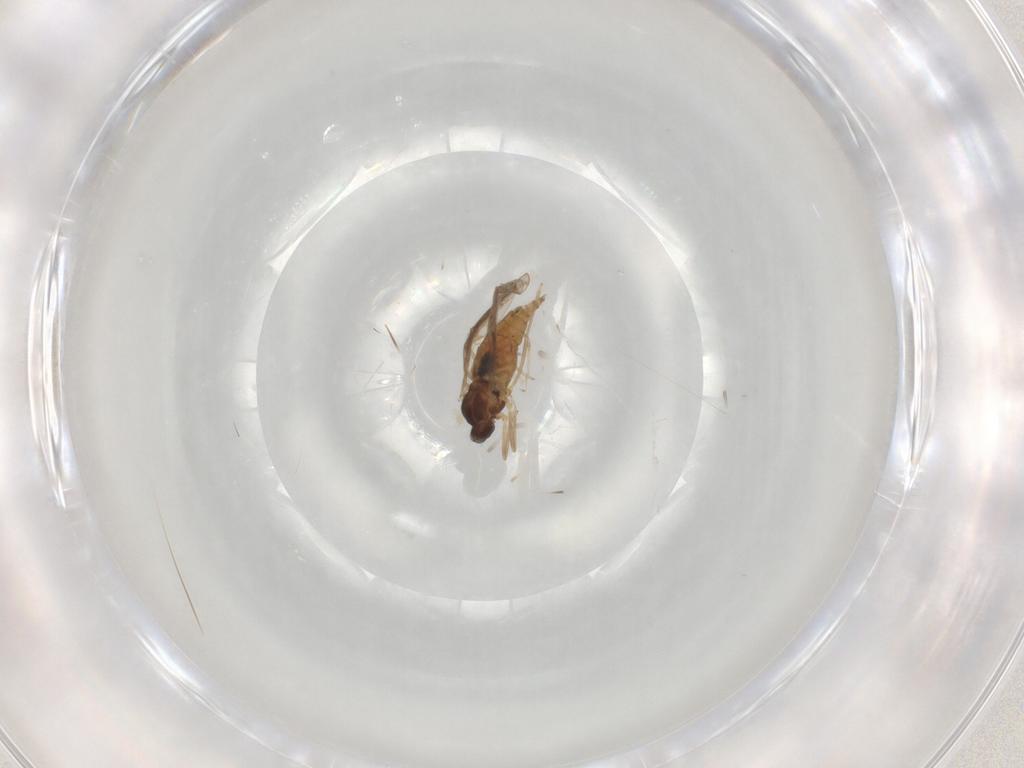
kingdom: Animalia
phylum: Arthropoda
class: Insecta
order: Diptera
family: Cecidomyiidae
